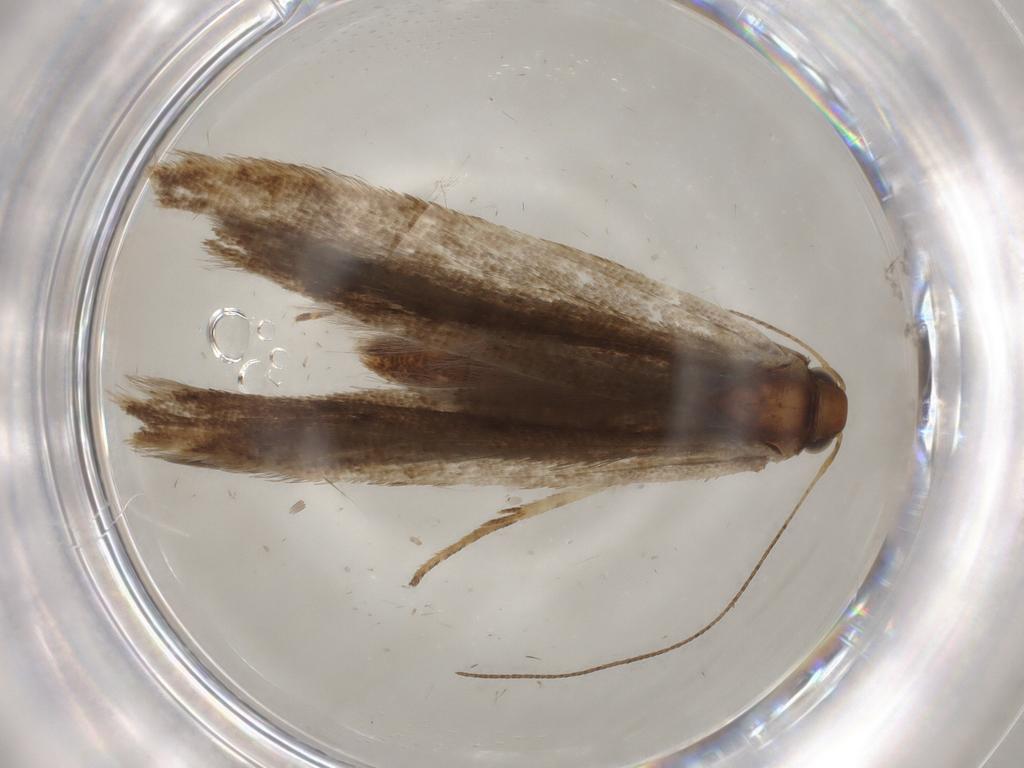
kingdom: Animalia
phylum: Arthropoda
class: Insecta
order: Lepidoptera
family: Gelechiidae
